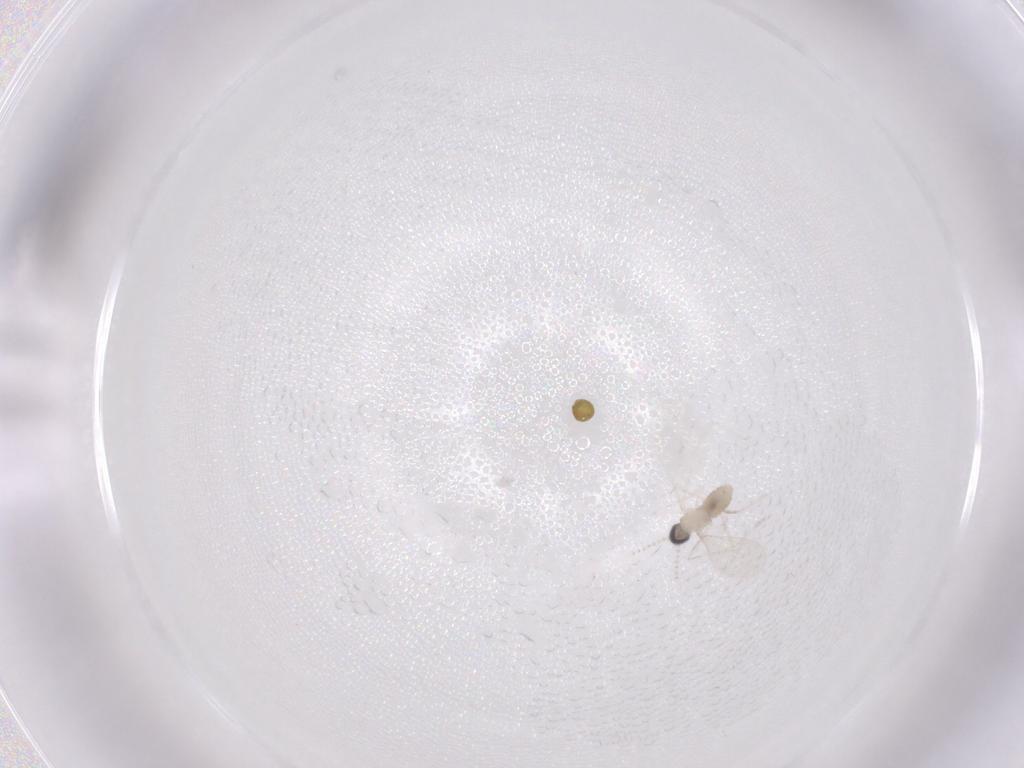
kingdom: Animalia
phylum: Arthropoda
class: Insecta
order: Diptera
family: Cecidomyiidae
